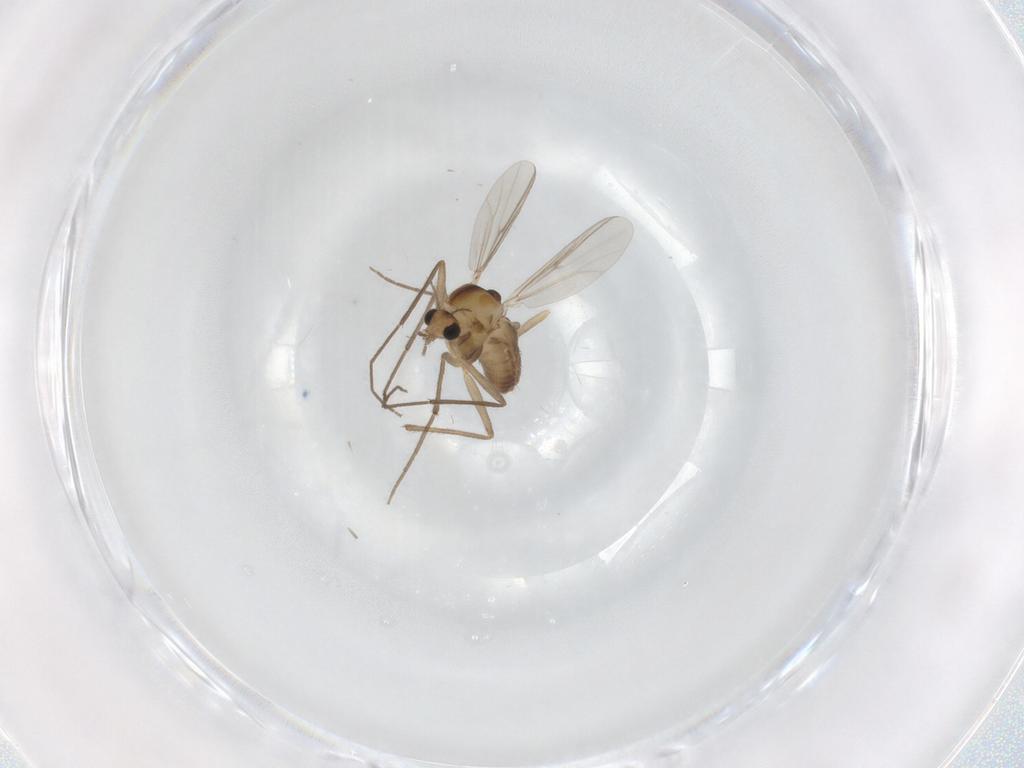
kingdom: Animalia
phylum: Arthropoda
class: Insecta
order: Diptera
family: Chironomidae
